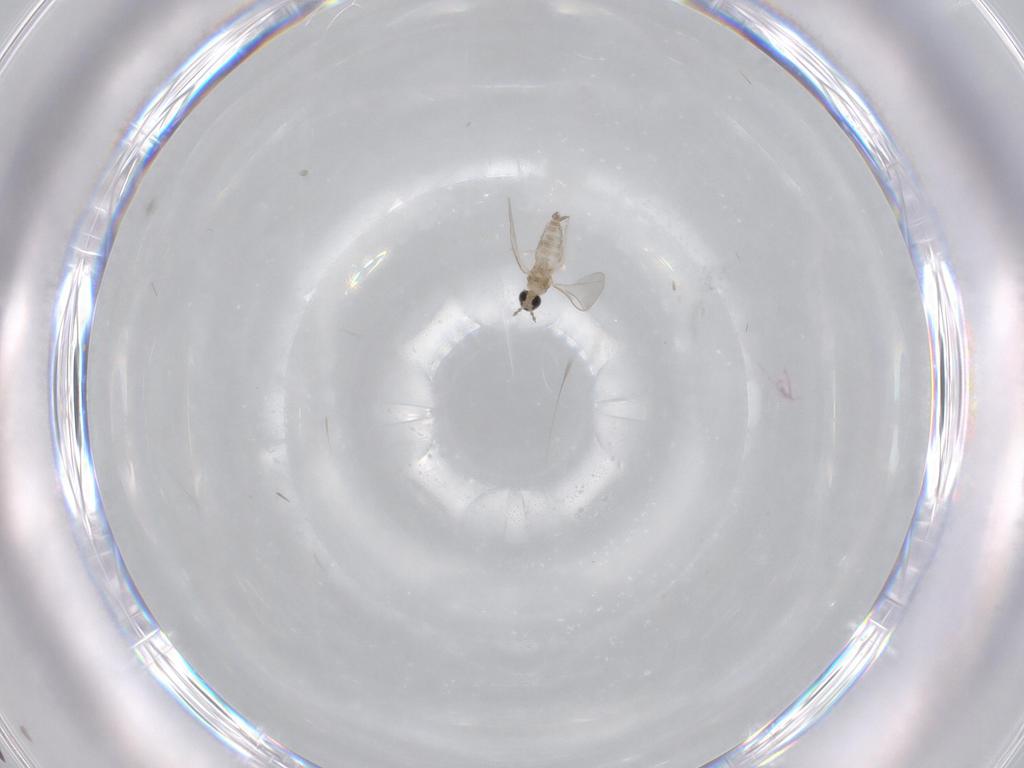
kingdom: Animalia
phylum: Arthropoda
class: Insecta
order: Diptera
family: Cecidomyiidae
